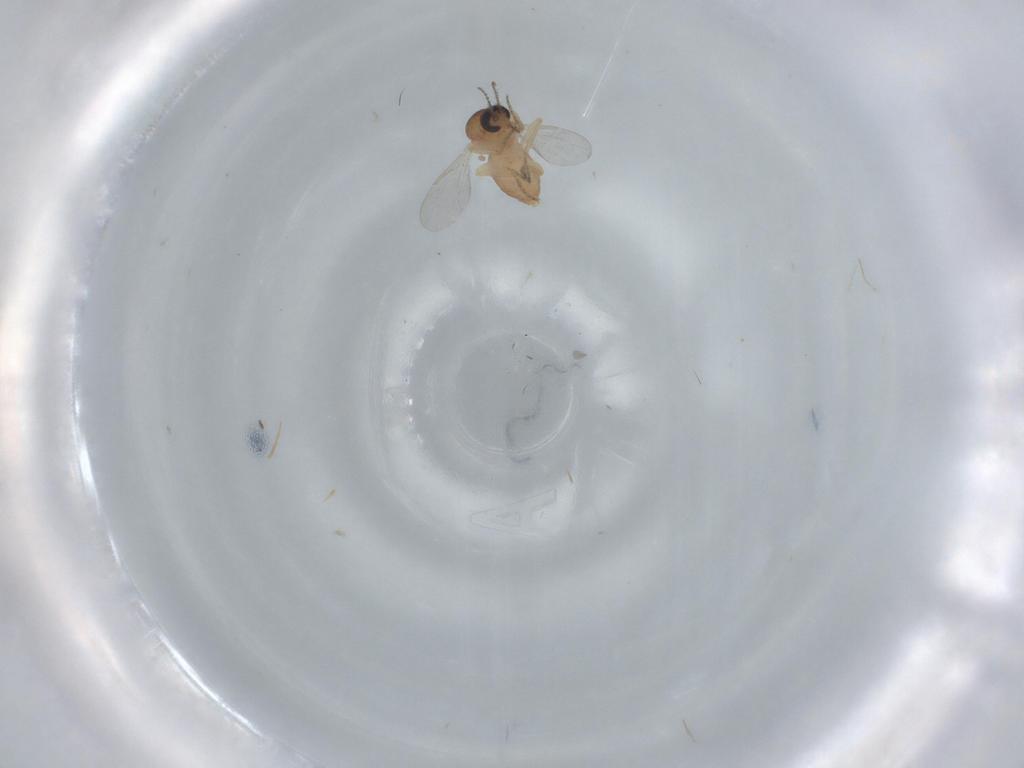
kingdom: Animalia
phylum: Arthropoda
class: Insecta
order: Diptera
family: Ceratopogonidae
